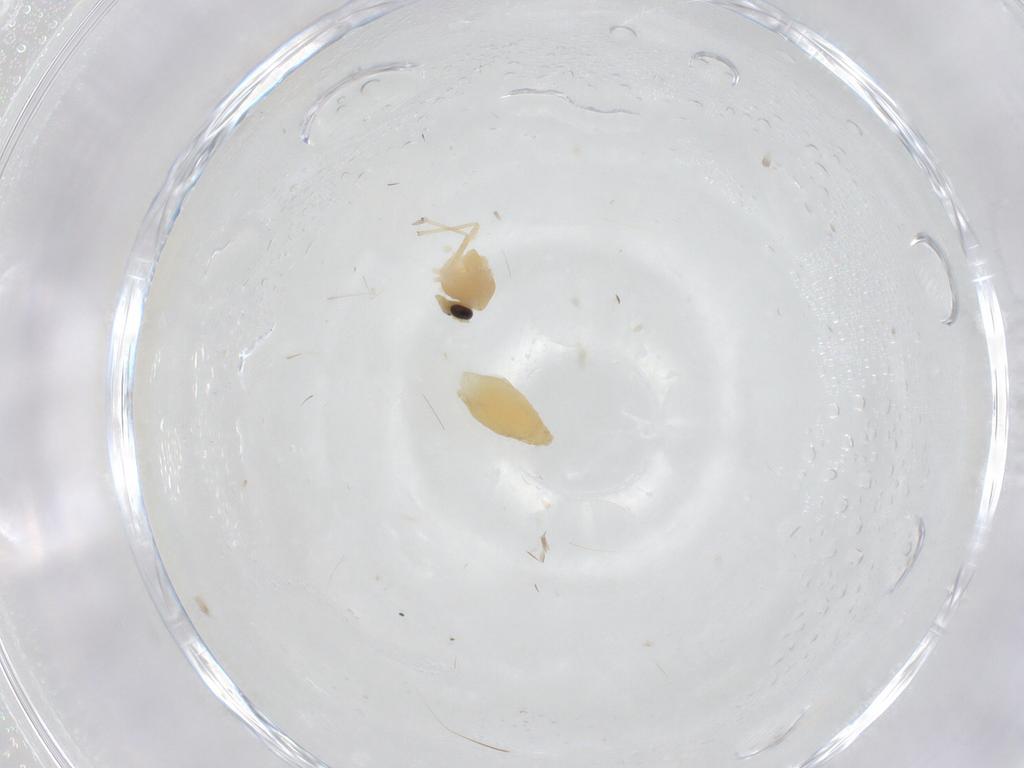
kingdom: Animalia
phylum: Arthropoda
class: Insecta
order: Diptera
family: Chironomidae
